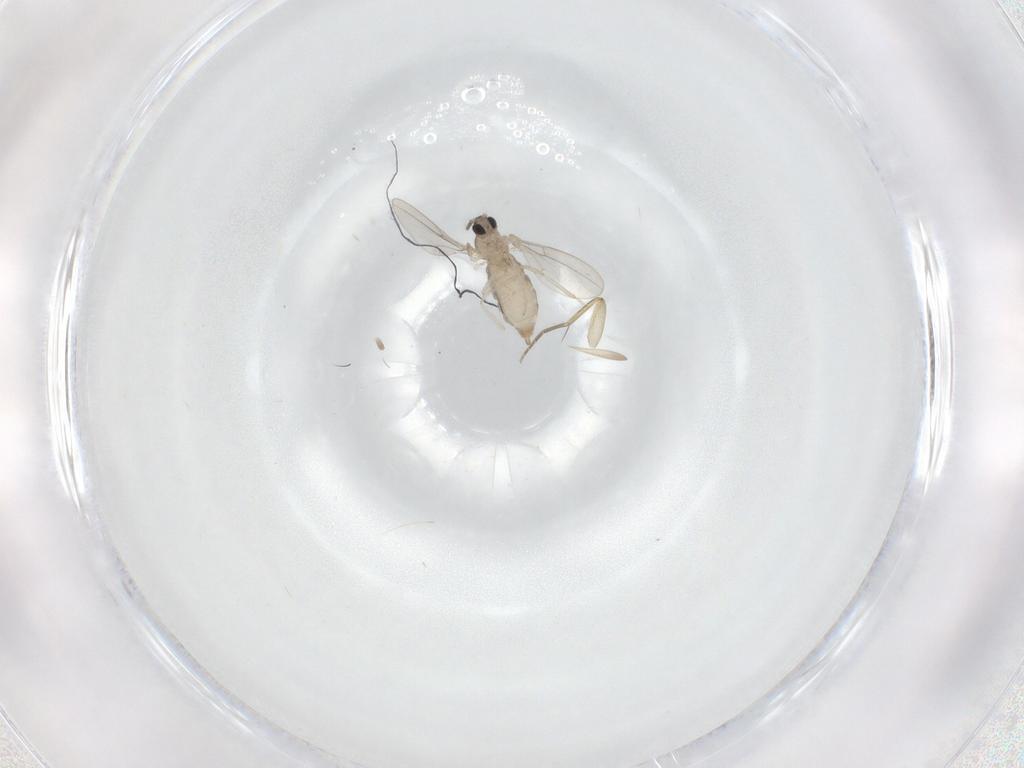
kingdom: Animalia
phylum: Arthropoda
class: Insecta
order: Diptera
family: Cecidomyiidae
